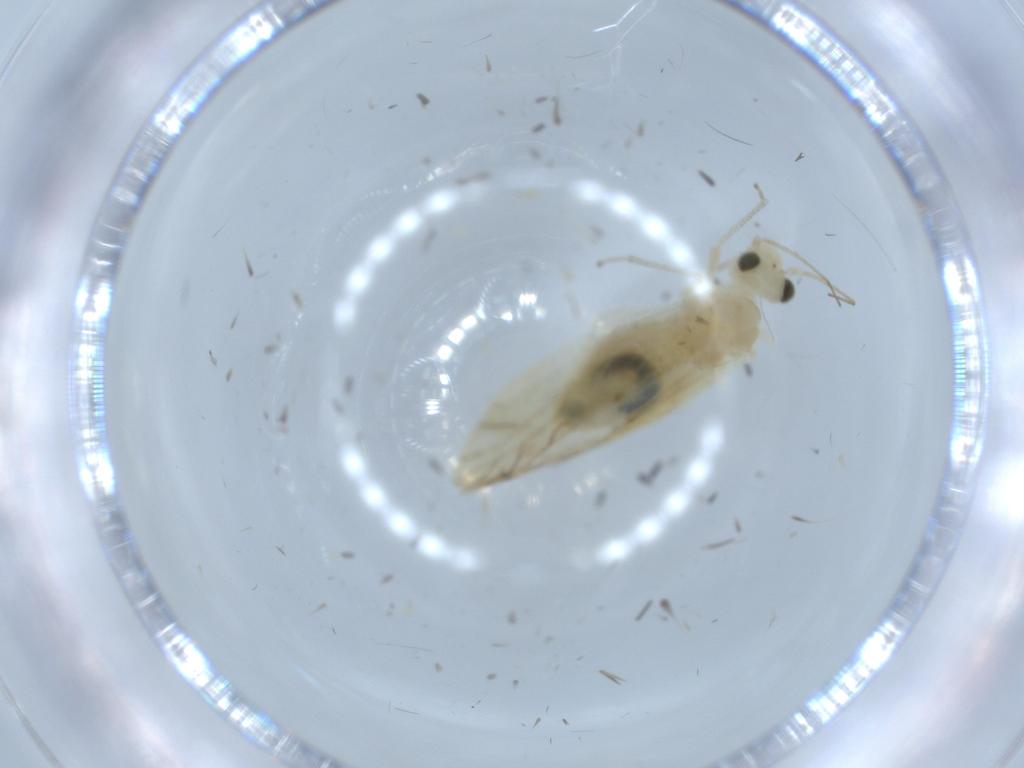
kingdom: Animalia
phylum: Arthropoda
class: Insecta
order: Psocodea
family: Caeciliusidae
